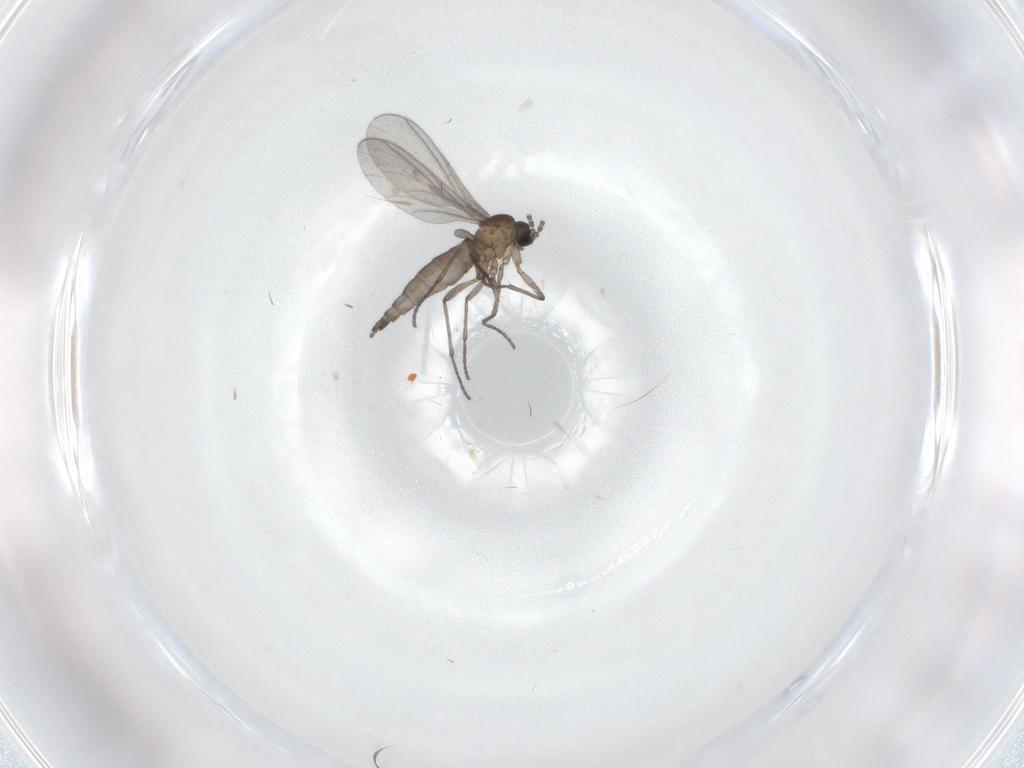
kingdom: Animalia
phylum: Arthropoda
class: Insecta
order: Diptera
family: Sciaridae
